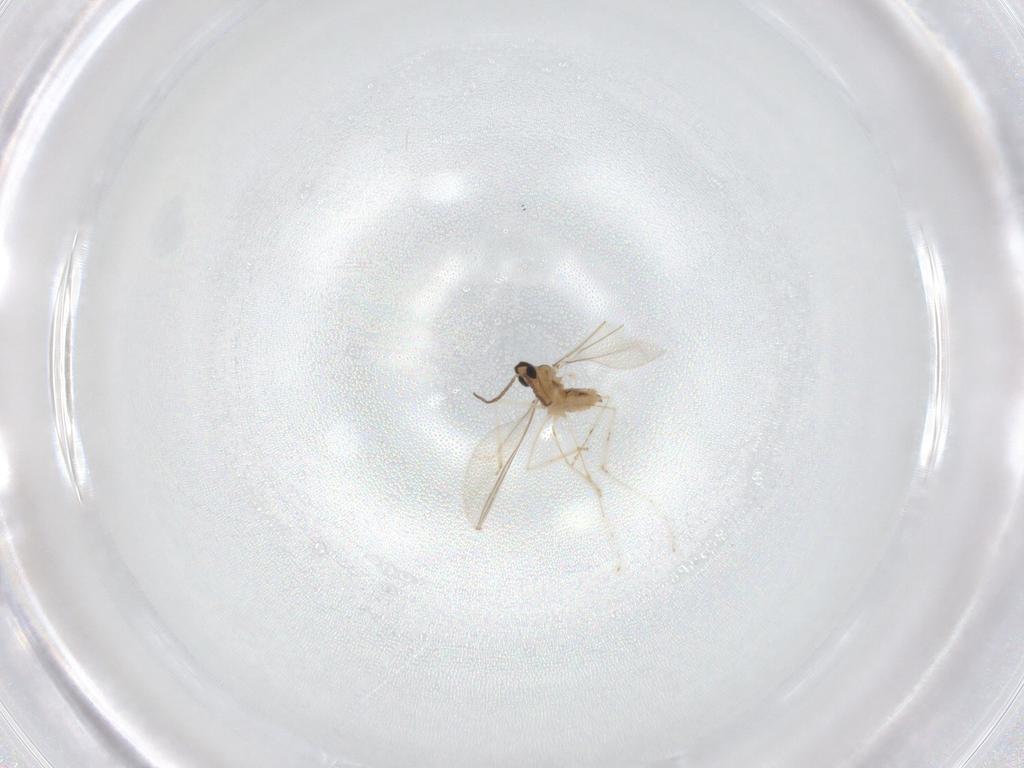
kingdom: Animalia
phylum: Arthropoda
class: Insecta
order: Diptera
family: Cecidomyiidae
